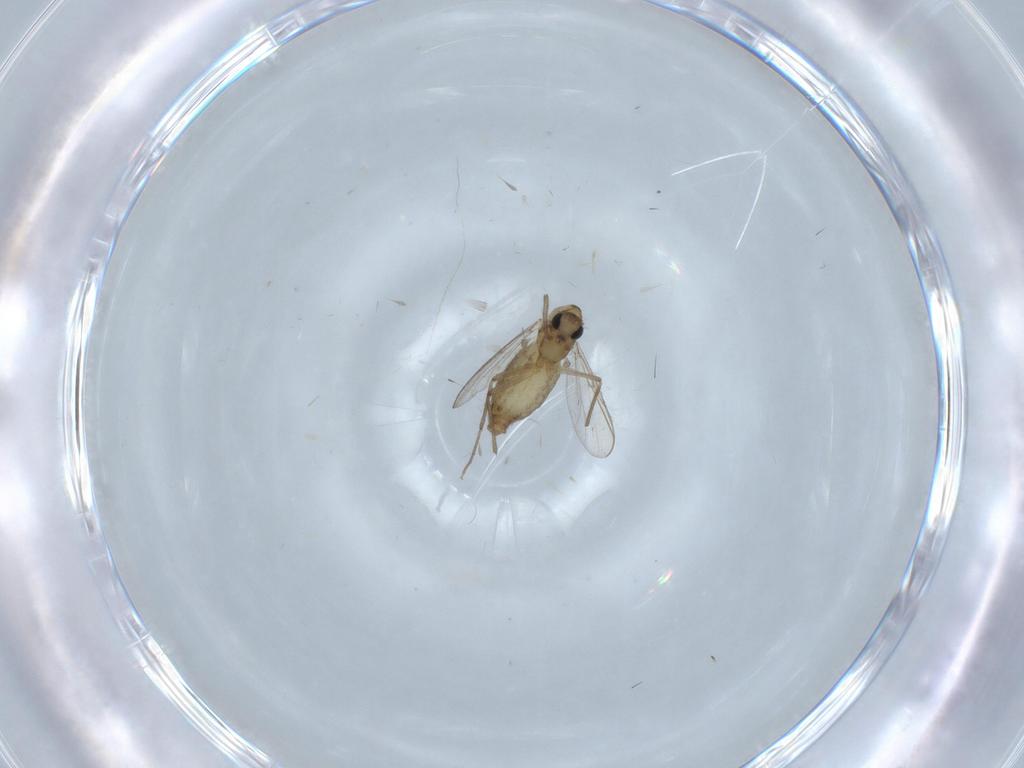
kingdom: Animalia
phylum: Arthropoda
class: Insecta
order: Diptera
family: Chironomidae
